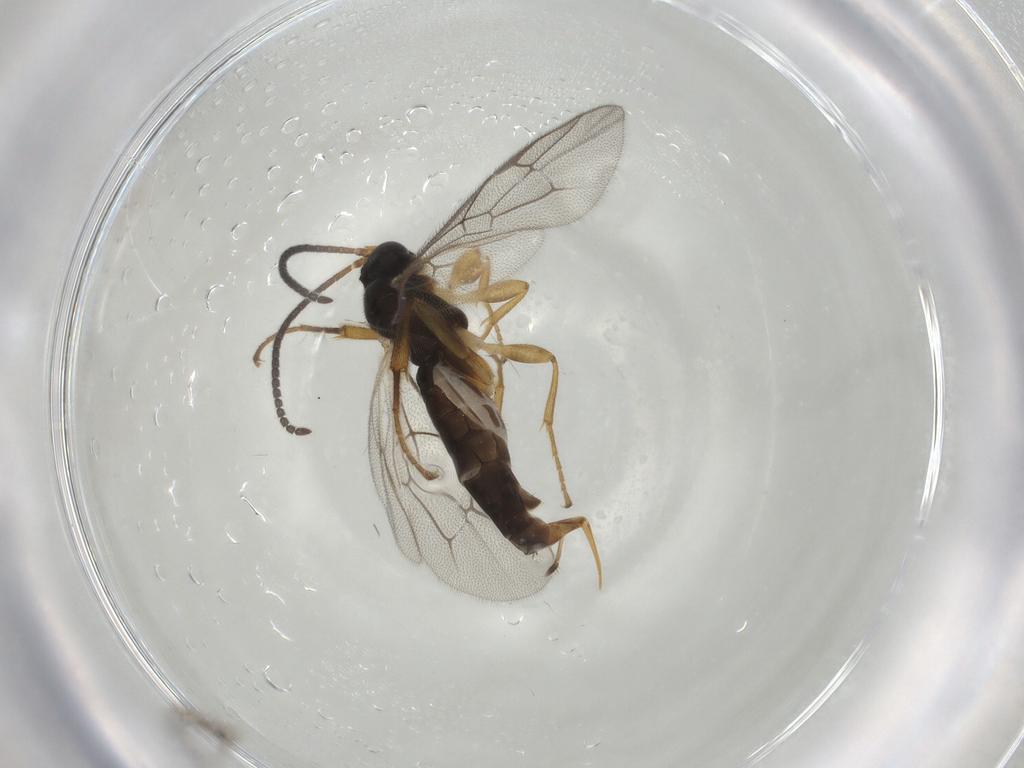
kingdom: Animalia
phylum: Arthropoda
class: Insecta
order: Hymenoptera
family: Ichneumonidae
